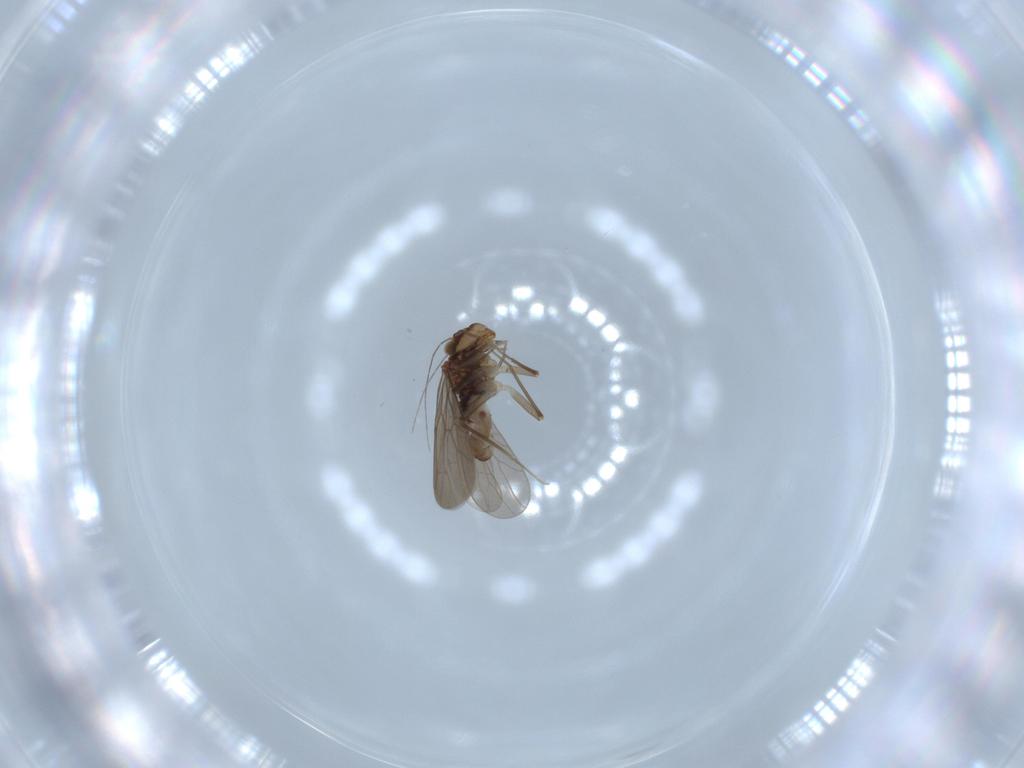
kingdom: Animalia
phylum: Arthropoda
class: Insecta
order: Psocodea
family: Lepidopsocidae
